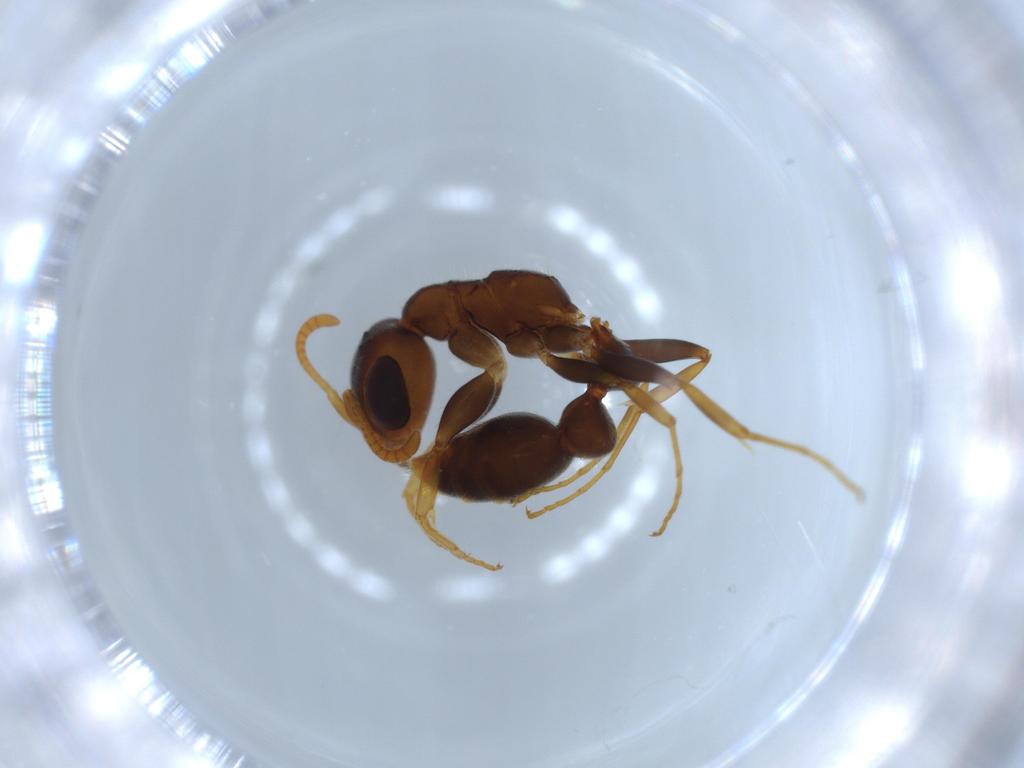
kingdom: Animalia
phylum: Arthropoda
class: Insecta
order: Hymenoptera
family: Formicidae
